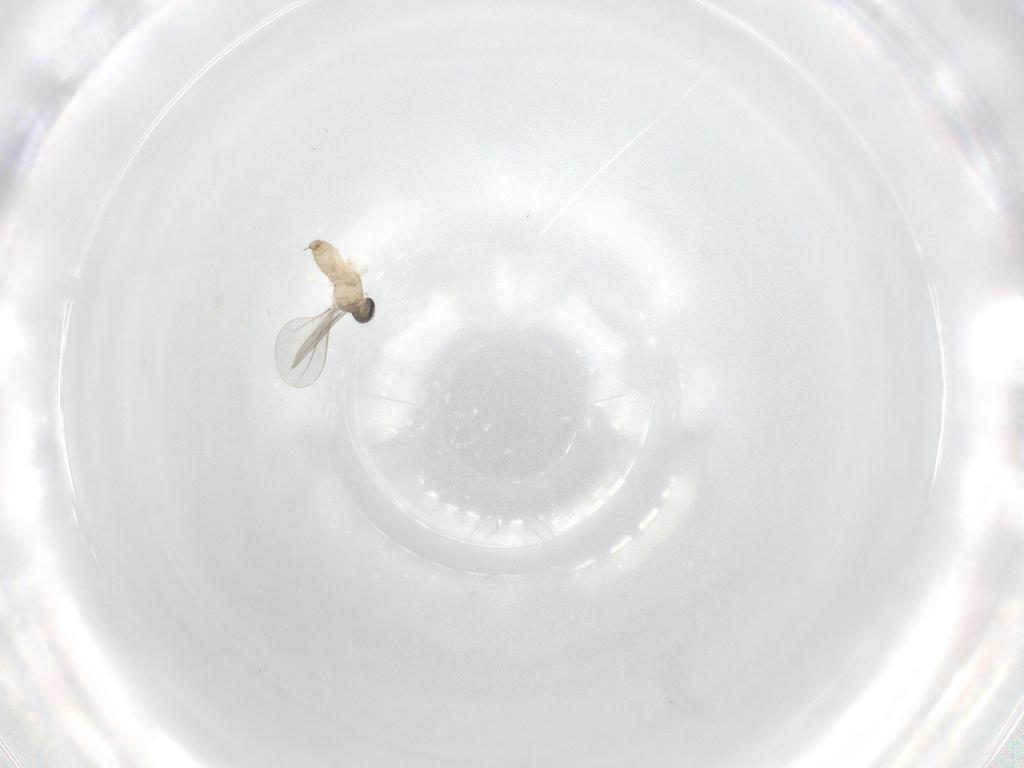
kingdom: Animalia
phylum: Arthropoda
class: Insecta
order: Diptera
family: Cecidomyiidae
